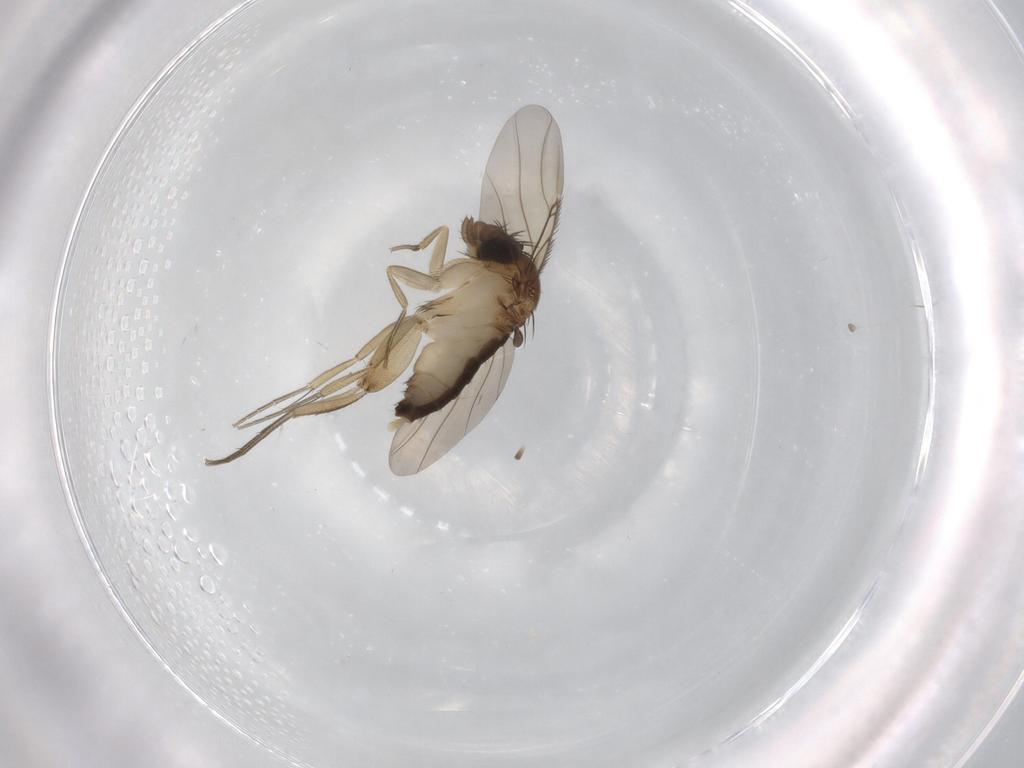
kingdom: Animalia
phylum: Arthropoda
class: Insecta
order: Diptera
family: Phoridae
